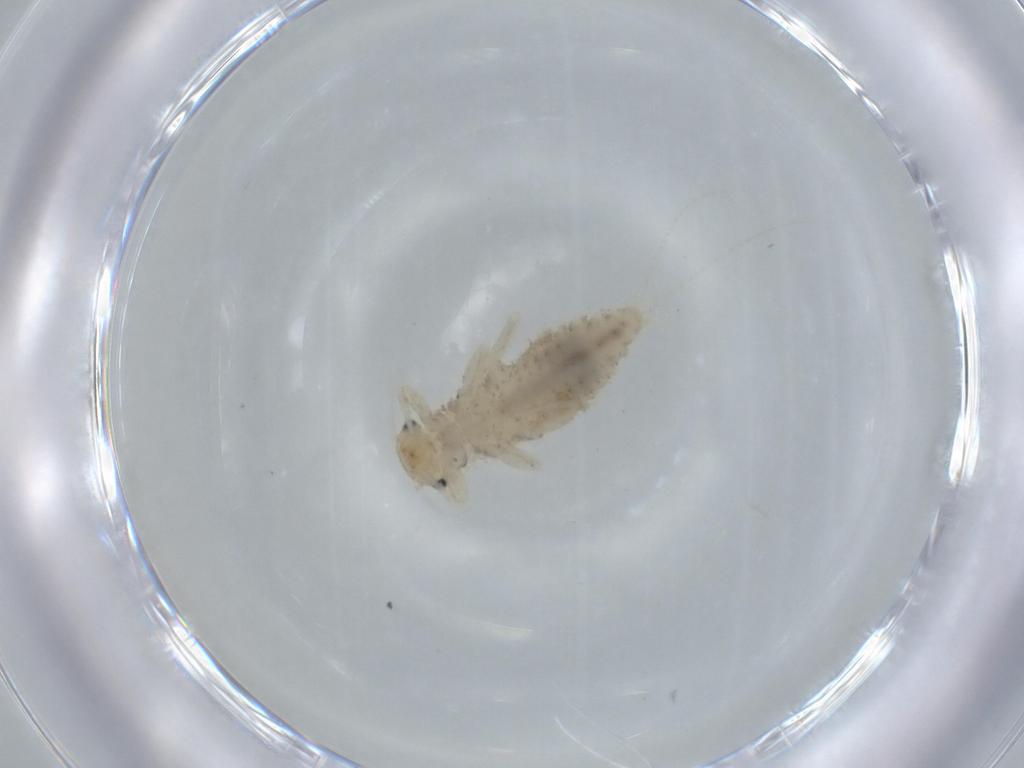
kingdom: Animalia
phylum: Arthropoda
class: Insecta
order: Ephemeroptera
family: Caenidae
